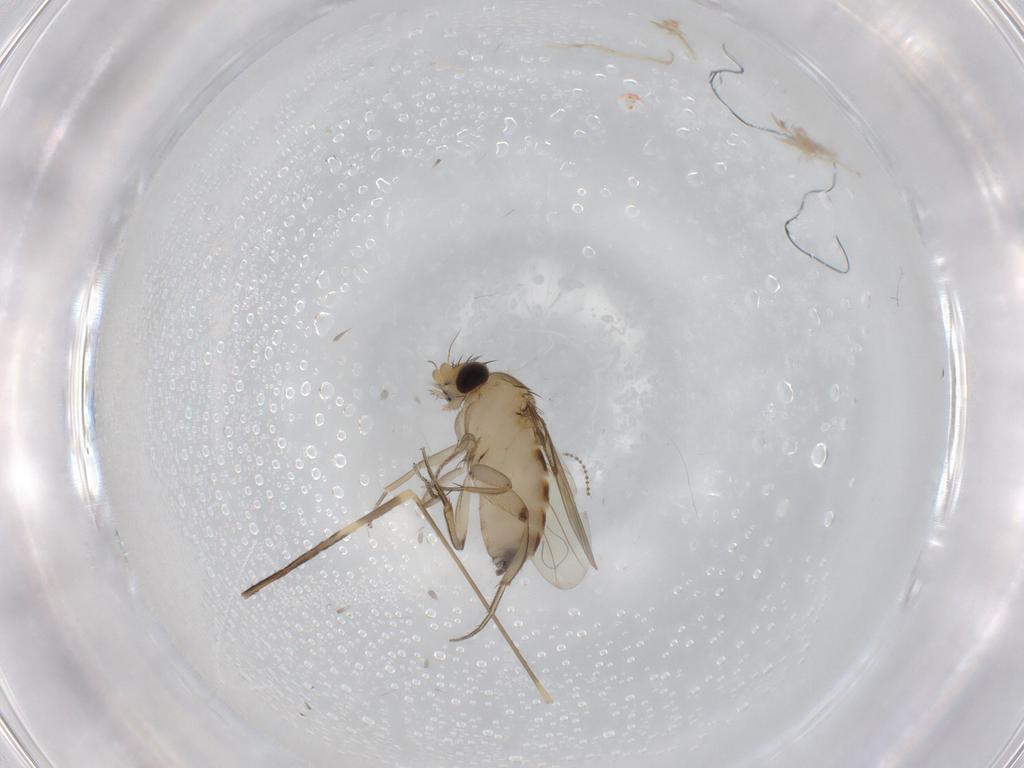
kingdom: Animalia
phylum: Arthropoda
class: Insecta
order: Diptera
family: Phoridae
